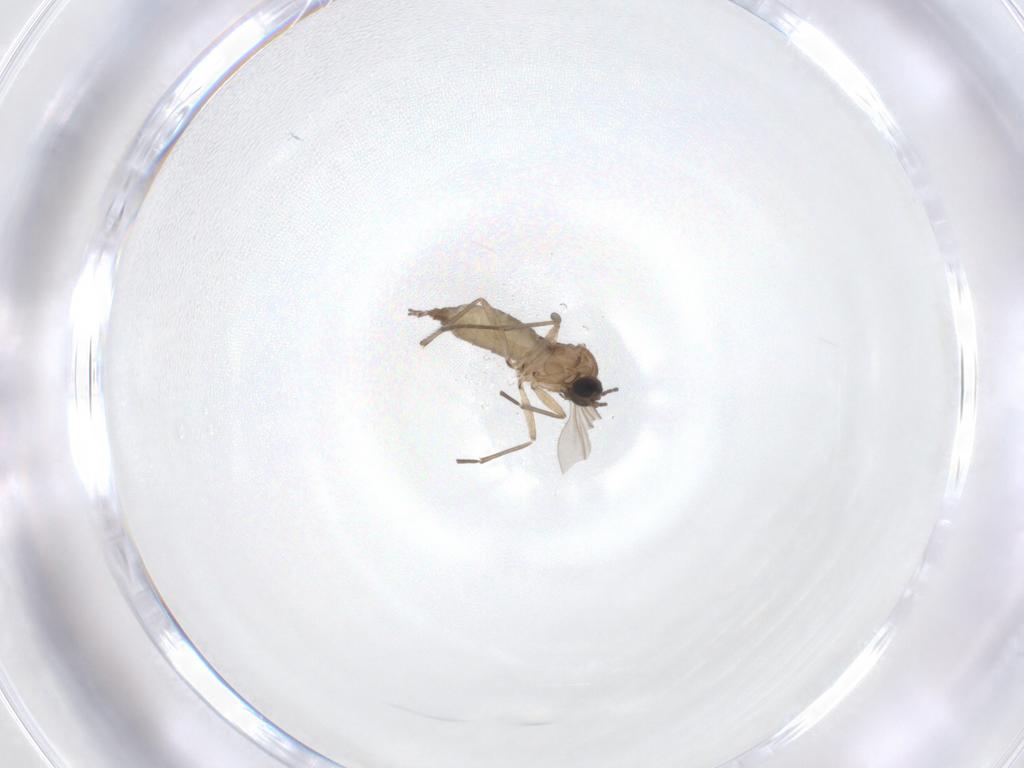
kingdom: Animalia
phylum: Arthropoda
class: Insecta
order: Diptera
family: Sciaridae
